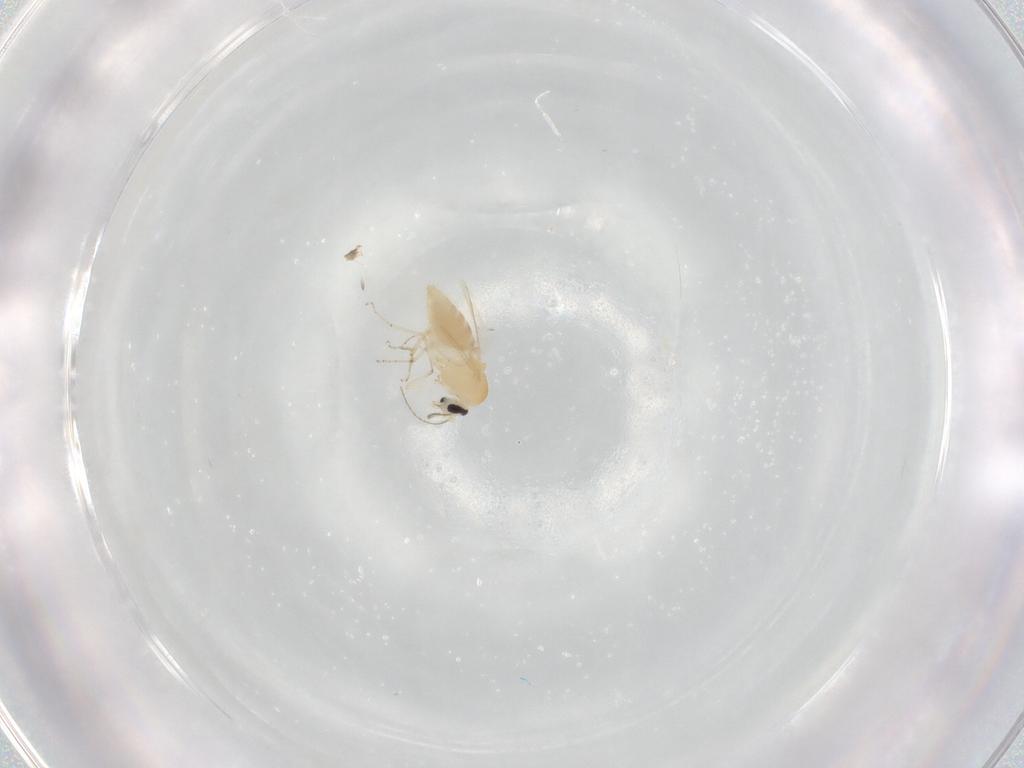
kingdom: Animalia
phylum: Arthropoda
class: Insecta
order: Diptera
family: Ceratopogonidae
